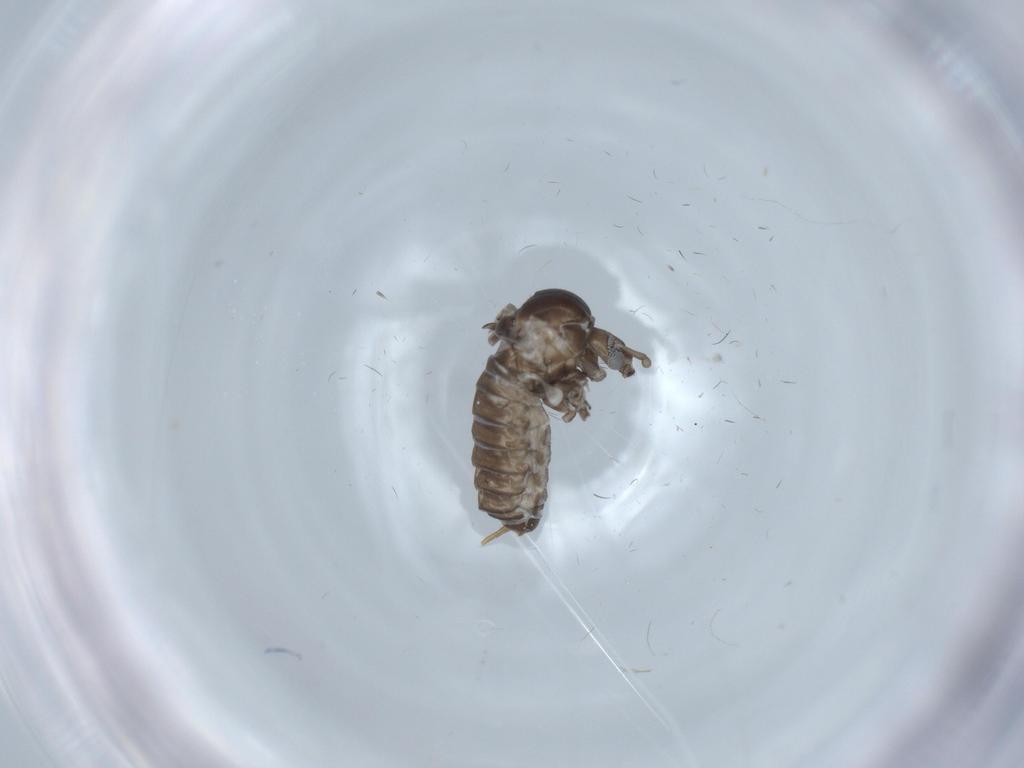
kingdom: Animalia
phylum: Arthropoda
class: Insecta
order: Diptera
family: Psychodidae
